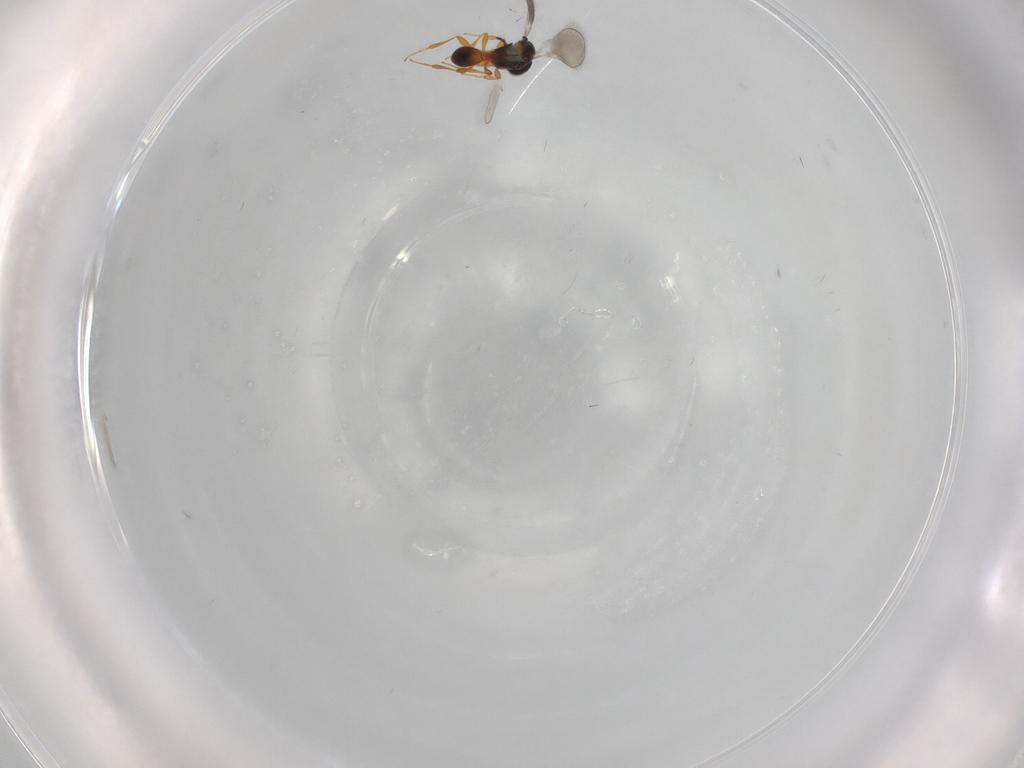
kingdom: Animalia
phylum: Arthropoda
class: Insecta
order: Hymenoptera
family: Platygastridae
